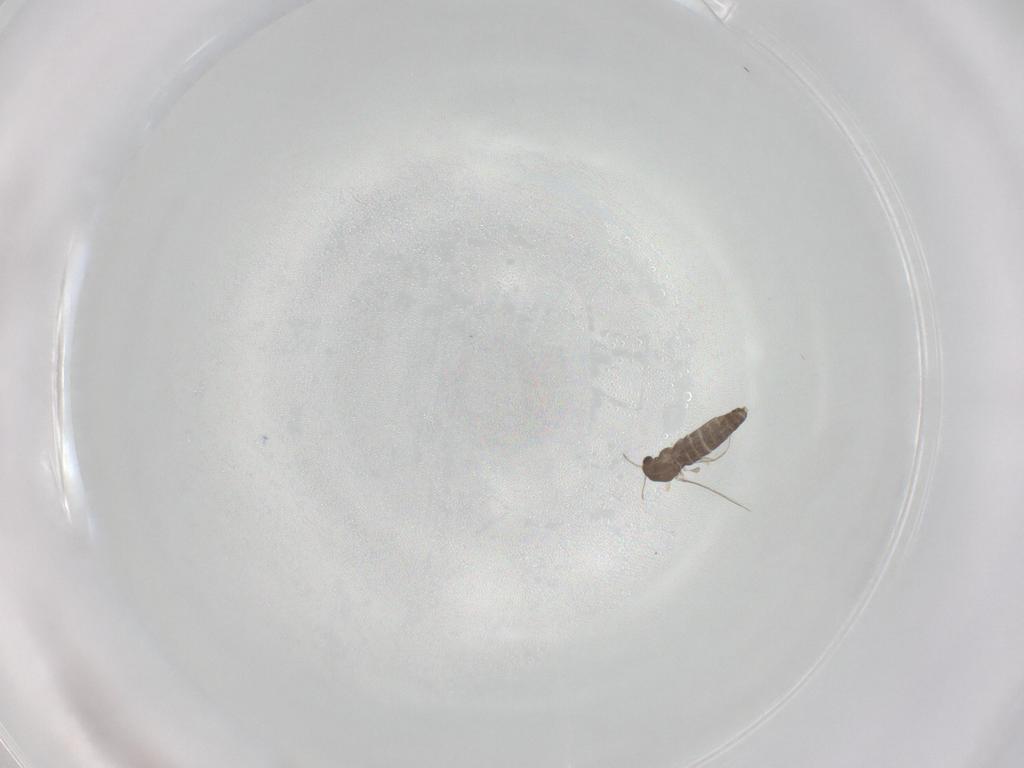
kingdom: Animalia
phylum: Arthropoda
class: Insecta
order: Diptera
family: Chironomidae
